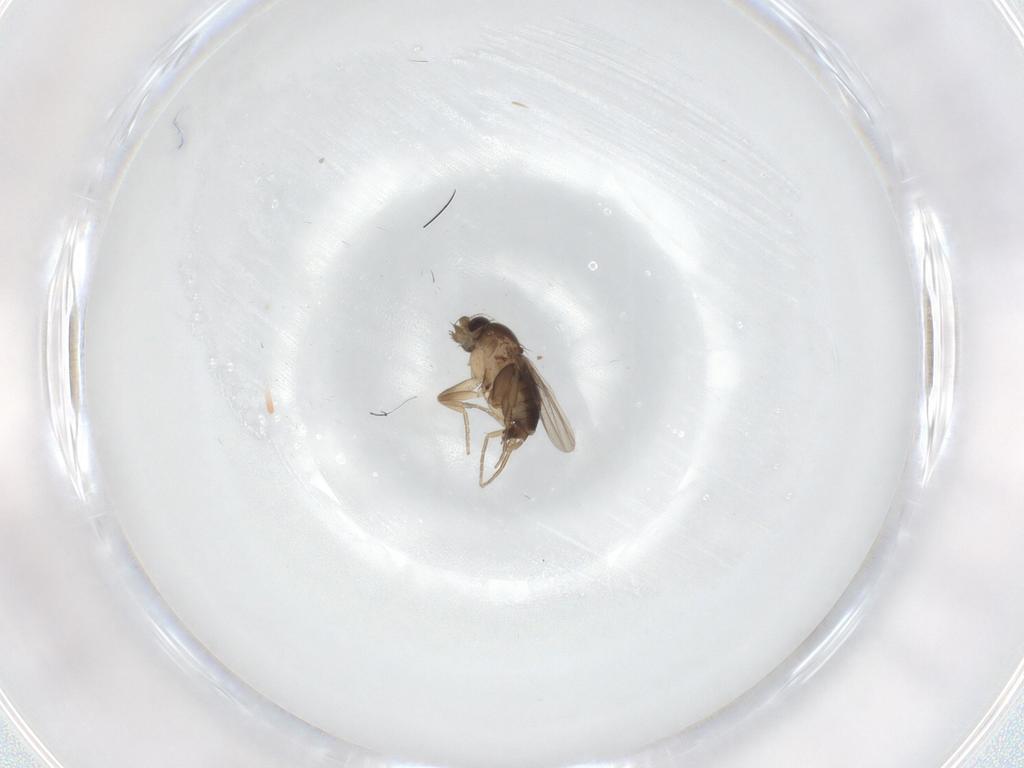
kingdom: Animalia
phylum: Arthropoda
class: Insecta
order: Diptera
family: Phoridae
